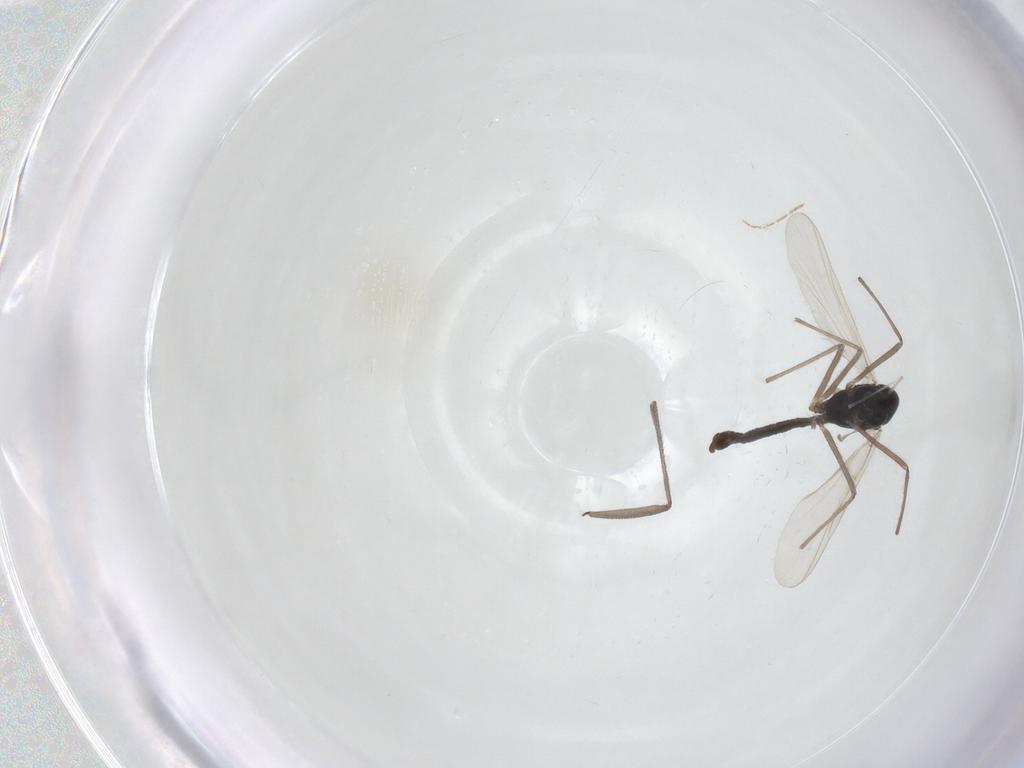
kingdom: Animalia
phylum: Arthropoda
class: Insecta
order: Diptera
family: Chironomidae
